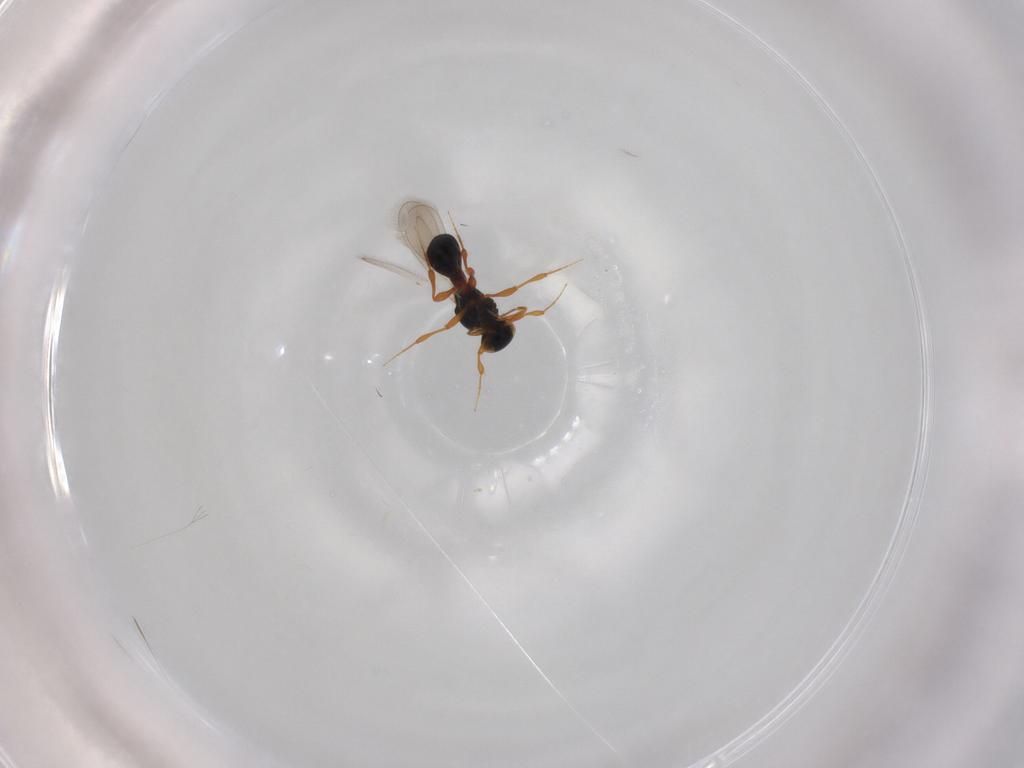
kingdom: Animalia
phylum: Arthropoda
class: Insecta
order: Hymenoptera
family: Platygastridae
